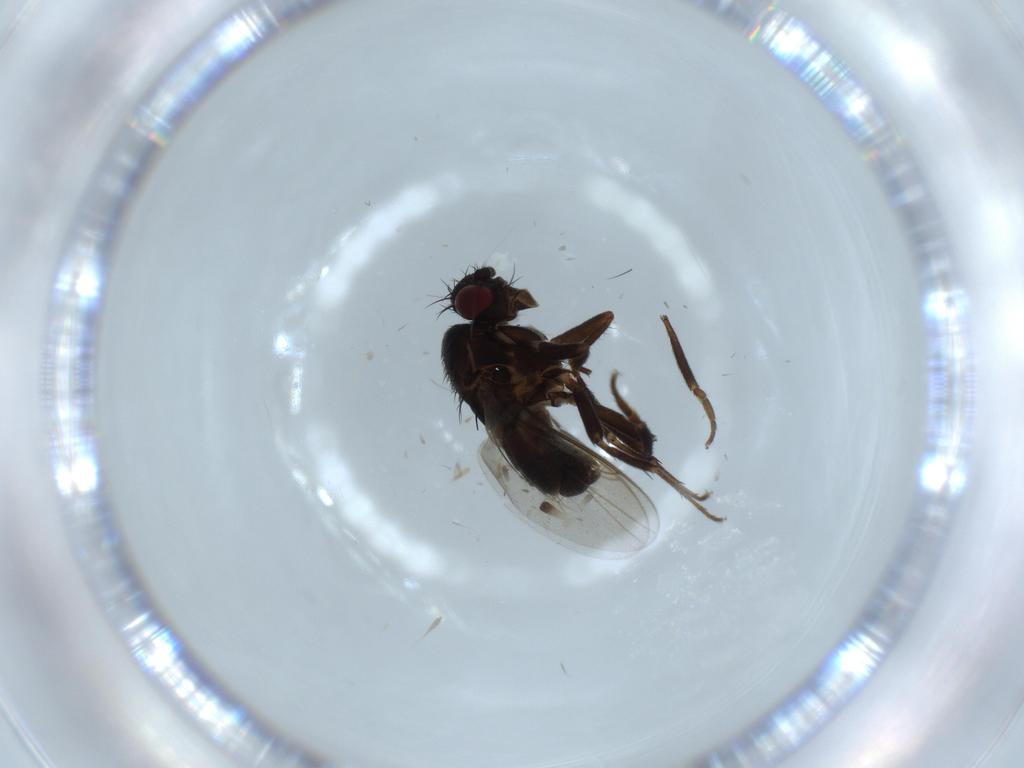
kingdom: Animalia
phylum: Arthropoda
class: Insecta
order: Diptera
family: Sphaeroceridae
